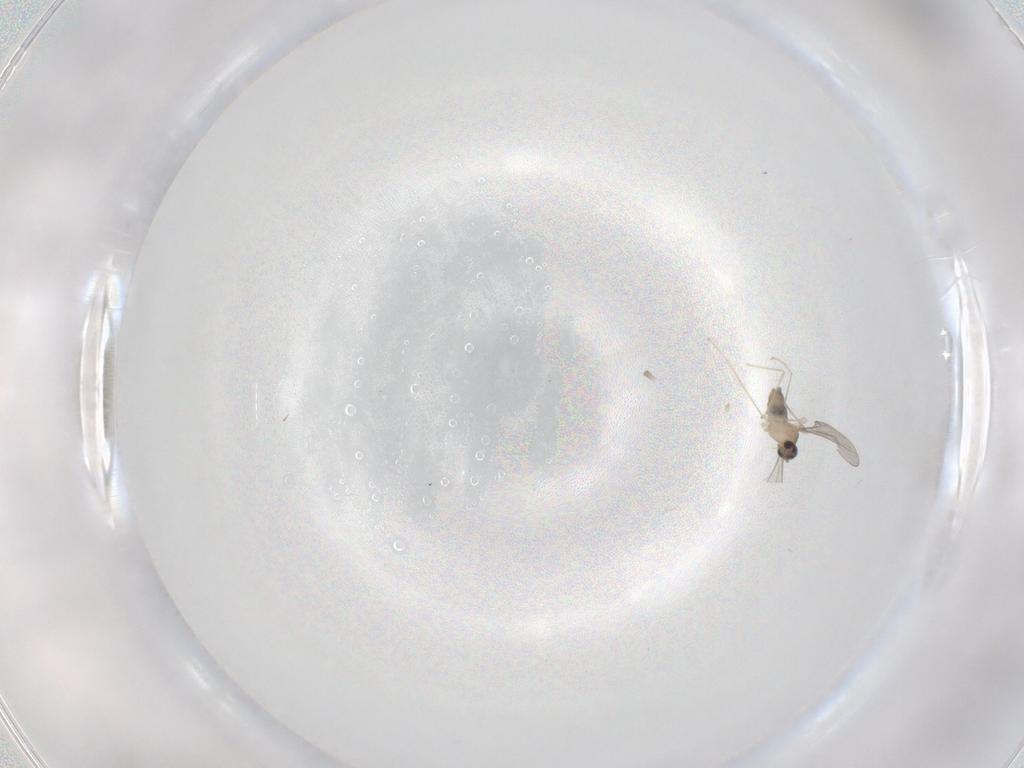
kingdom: Animalia
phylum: Arthropoda
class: Insecta
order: Diptera
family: Cecidomyiidae
